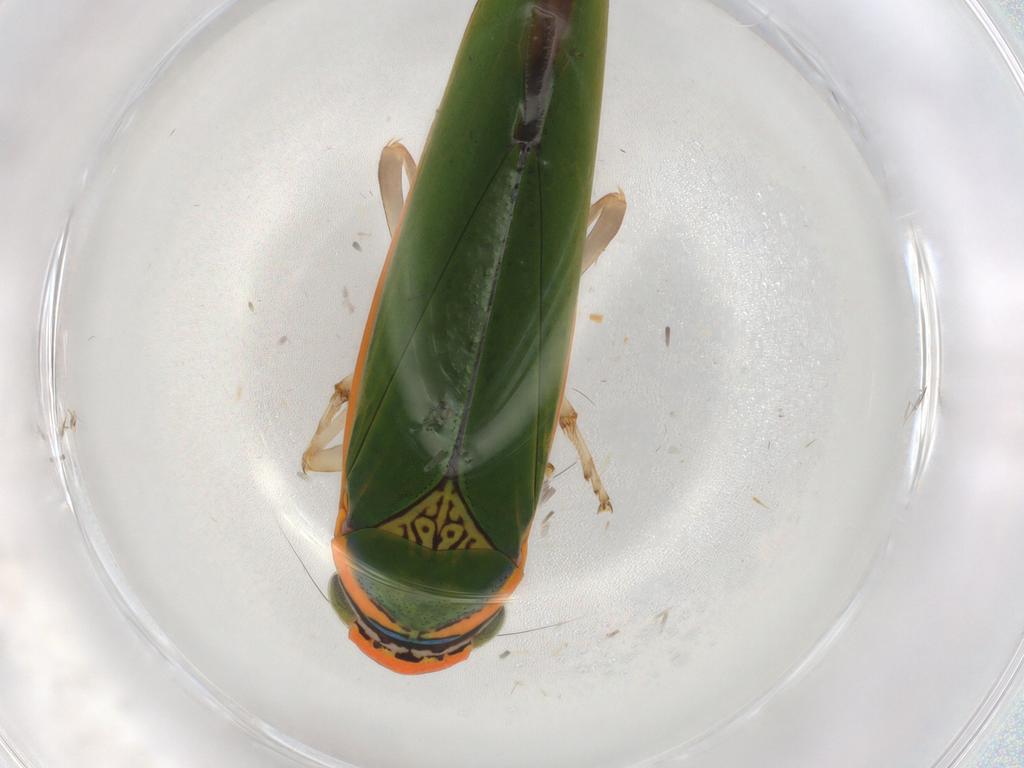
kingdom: Animalia
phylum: Arthropoda
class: Insecta
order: Hemiptera
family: Cicadellidae
